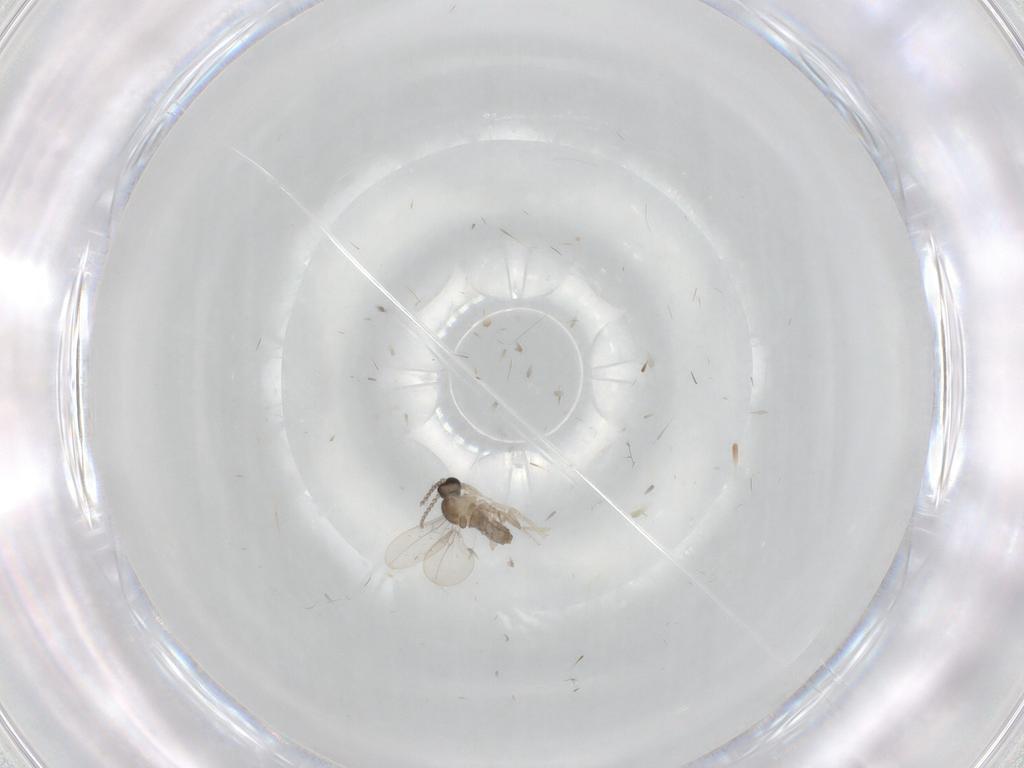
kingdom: Animalia
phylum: Arthropoda
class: Insecta
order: Diptera
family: Cecidomyiidae
